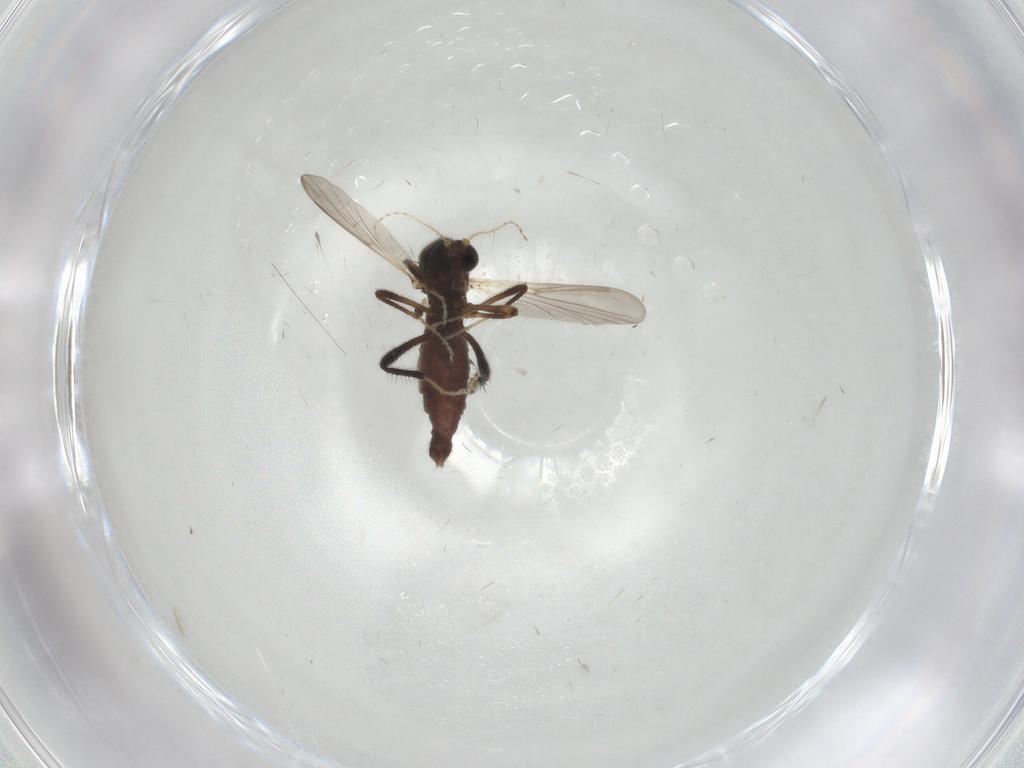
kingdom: Animalia
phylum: Arthropoda
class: Insecta
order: Diptera
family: Ceratopogonidae
